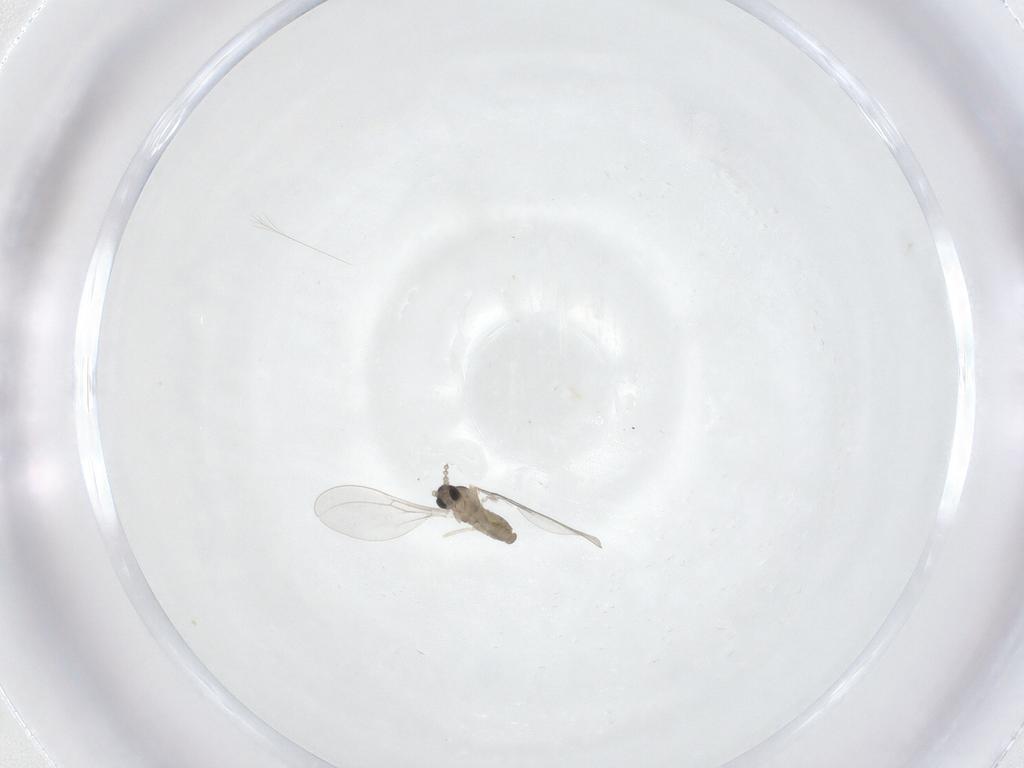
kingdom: Animalia
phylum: Arthropoda
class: Insecta
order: Diptera
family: Cecidomyiidae
